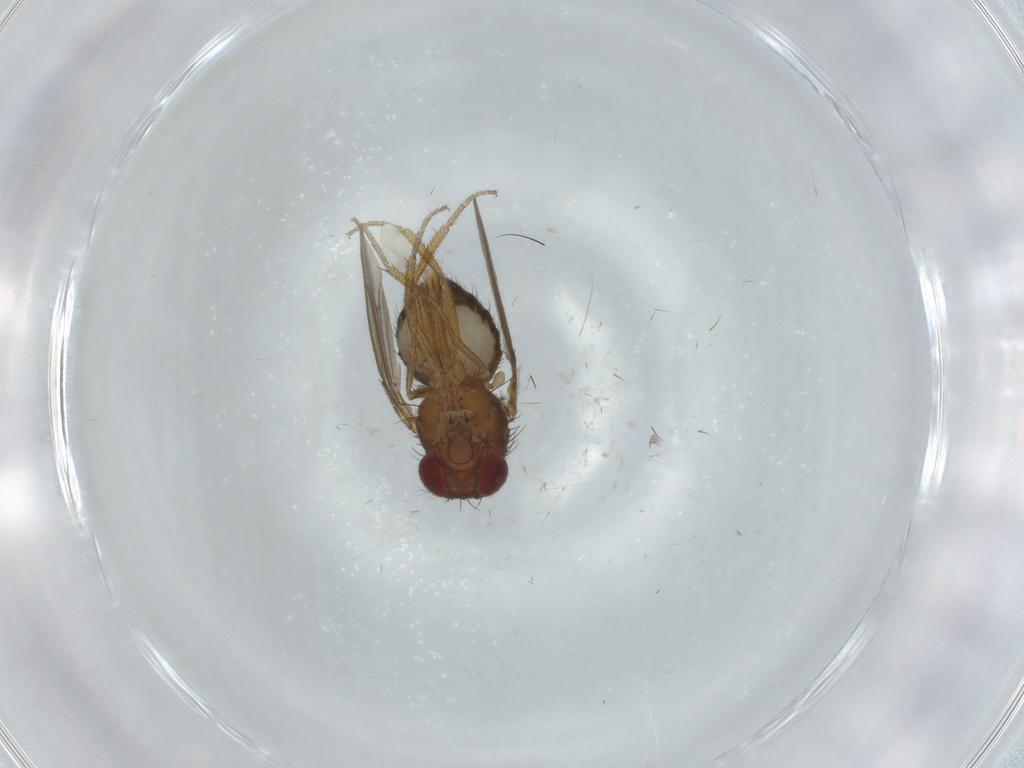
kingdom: Animalia
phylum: Arthropoda
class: Insecta
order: Diptera
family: Drosophilidae
